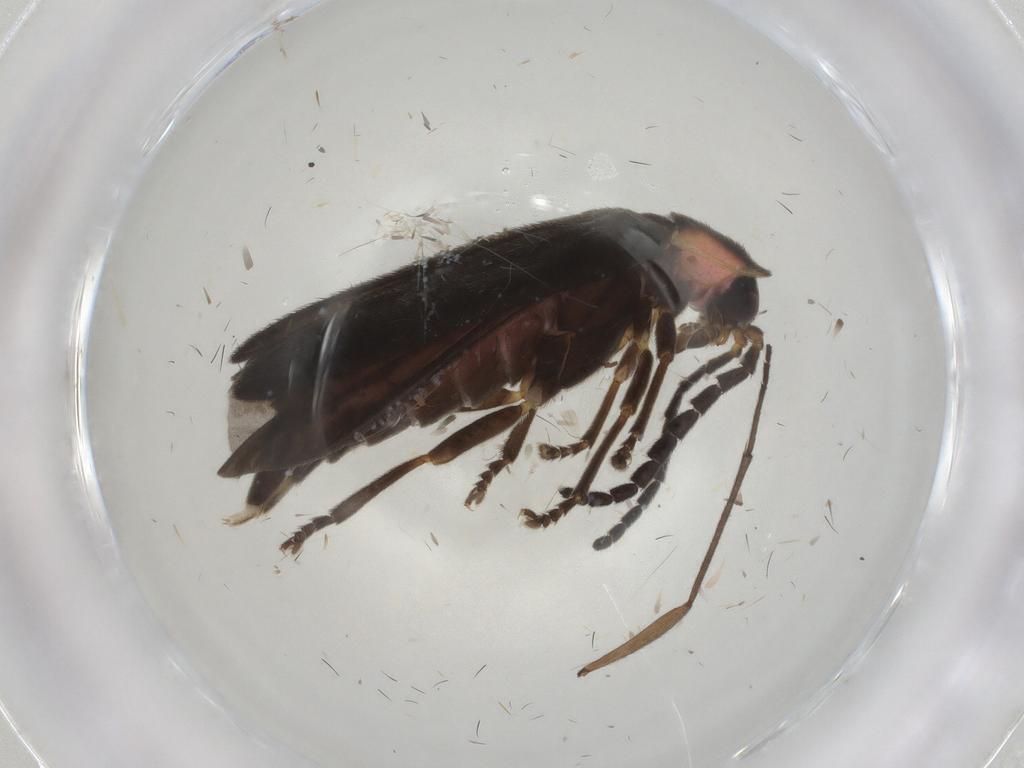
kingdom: Animalia
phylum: Arthropoda
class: Insecta
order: Coleoptera
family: Lampyridae
